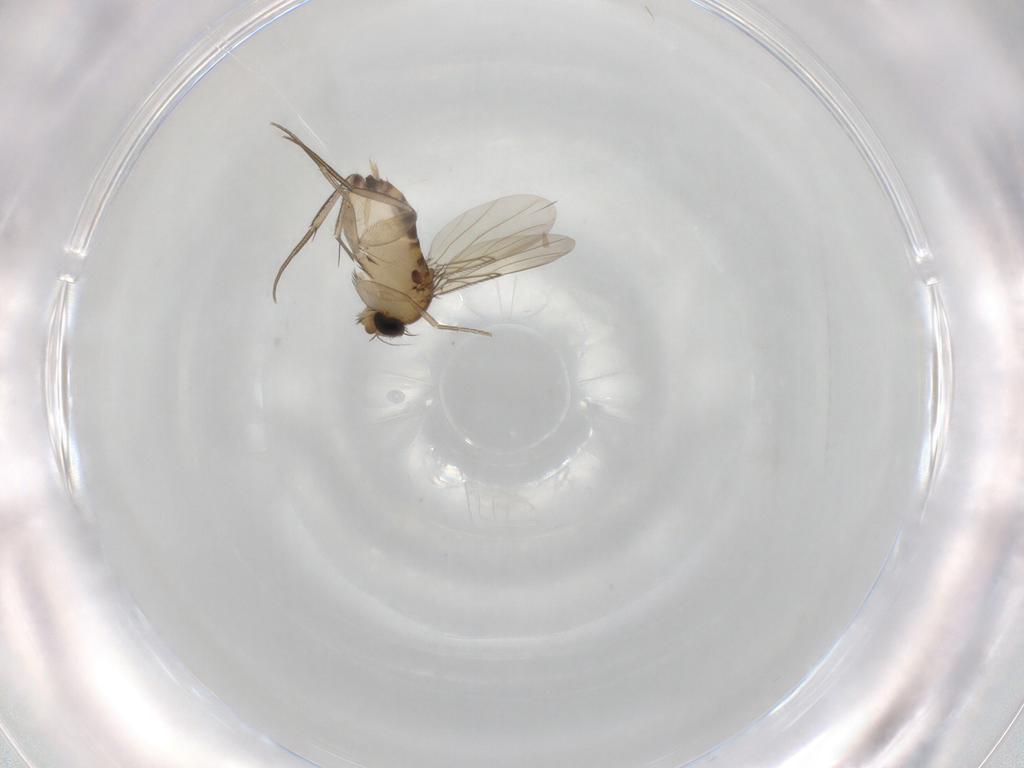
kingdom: Animalia
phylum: Arthropoda
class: Insecta
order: Diptera
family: Phoridae
